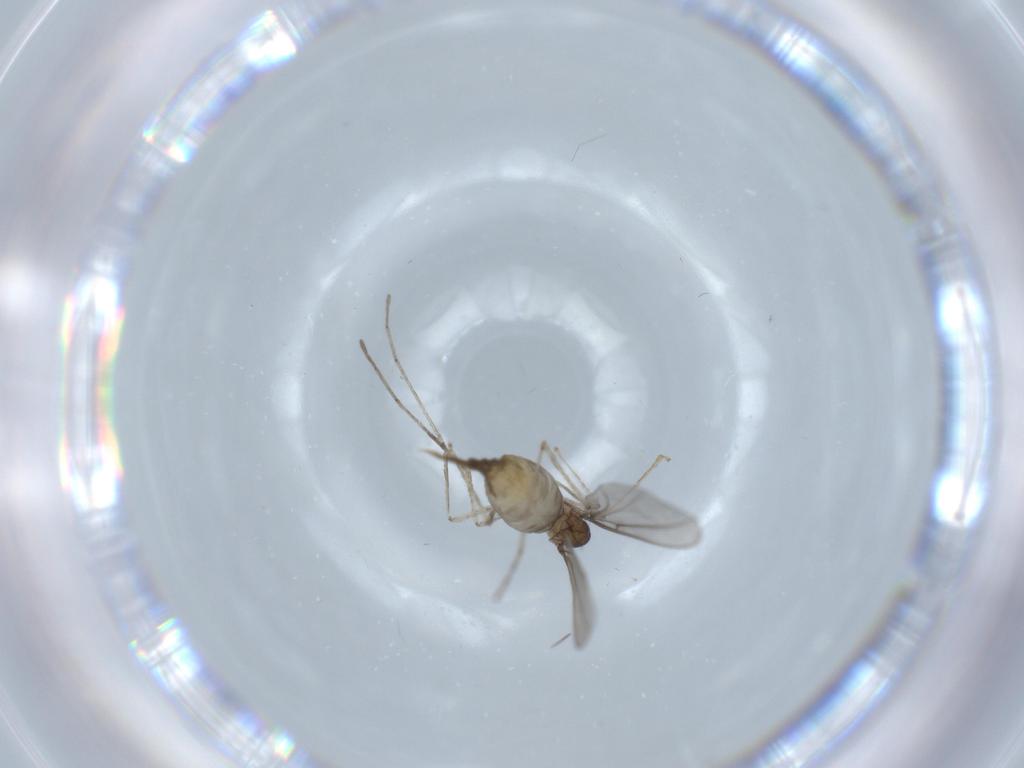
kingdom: Animalia
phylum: Arthropoda
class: Insecta
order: Diptera
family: Cecidomyiidae
